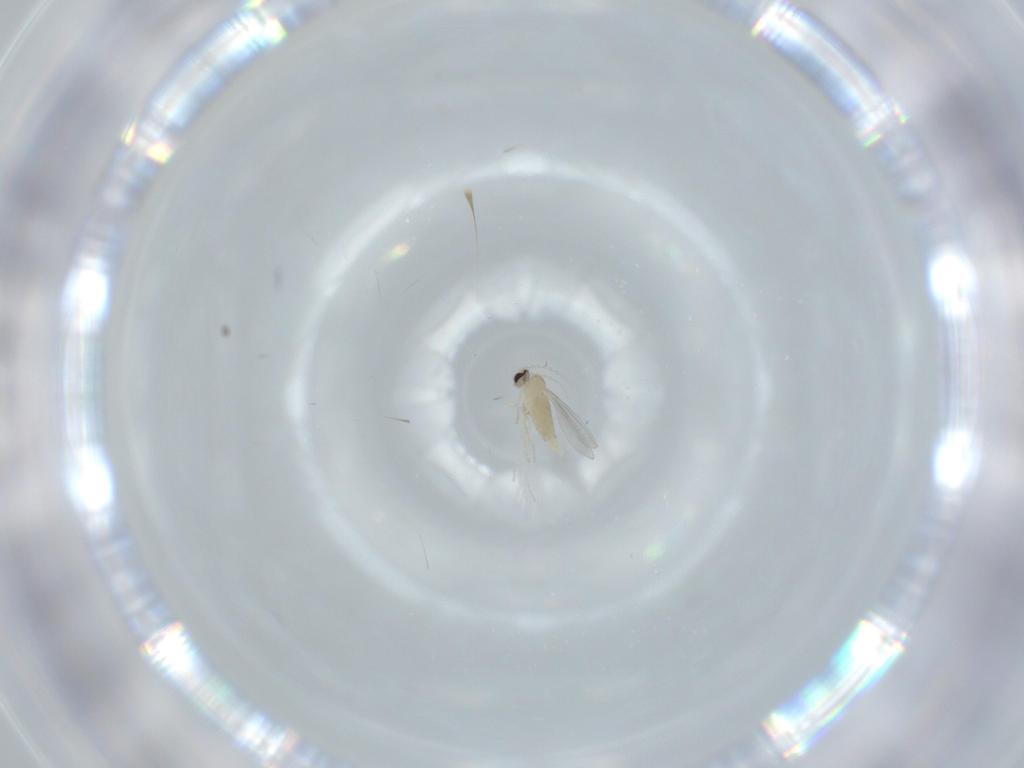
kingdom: Animalia
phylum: Arthropoda
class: Insecta
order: Diptera
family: Cecidomyiidae
